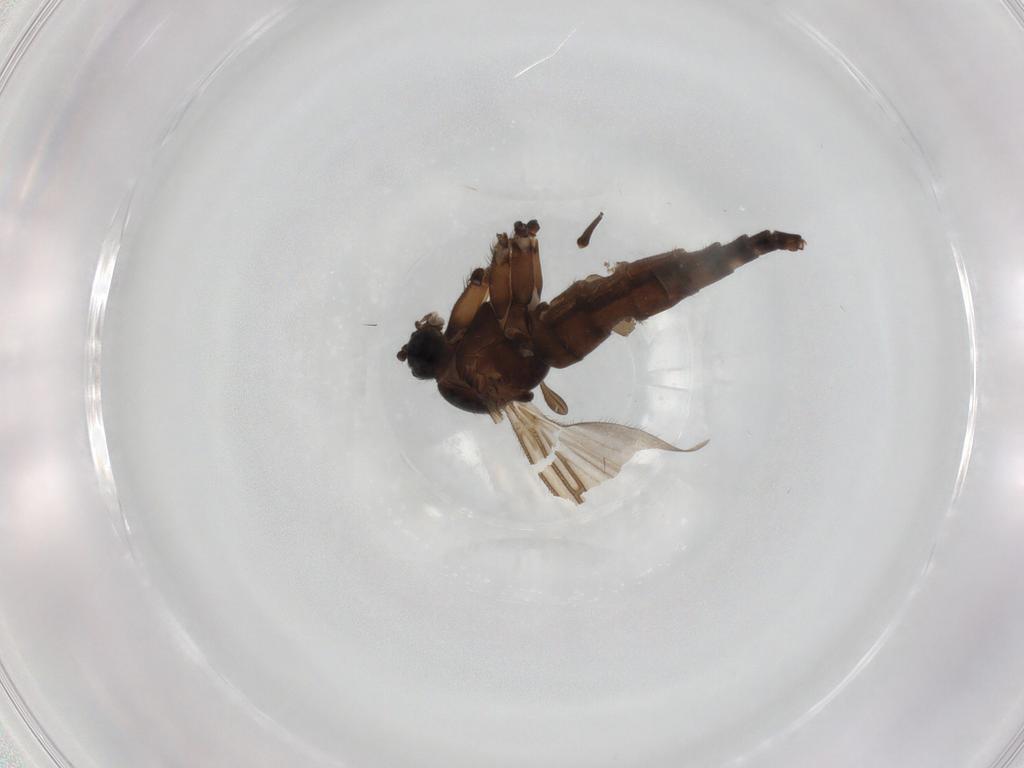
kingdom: Animalia
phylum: Arthropoda
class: Insecta
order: Diptera
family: Sciaridae
